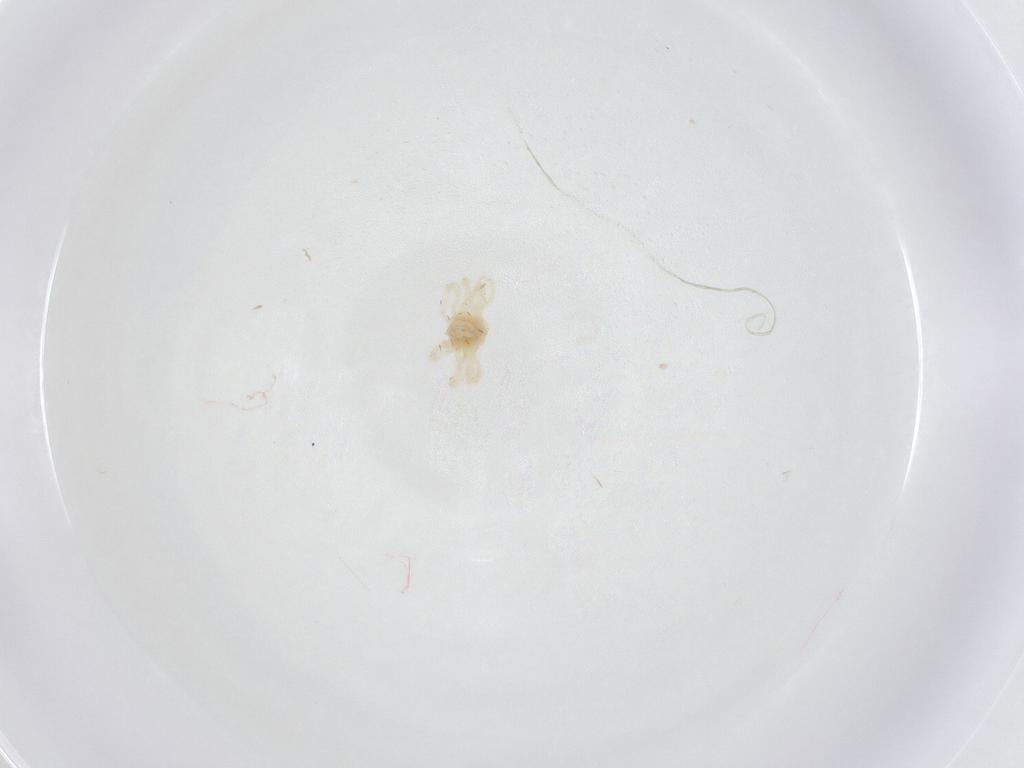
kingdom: Animalia
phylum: Arthropoda
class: Arachnida
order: Trombidiformes
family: Anystidae
